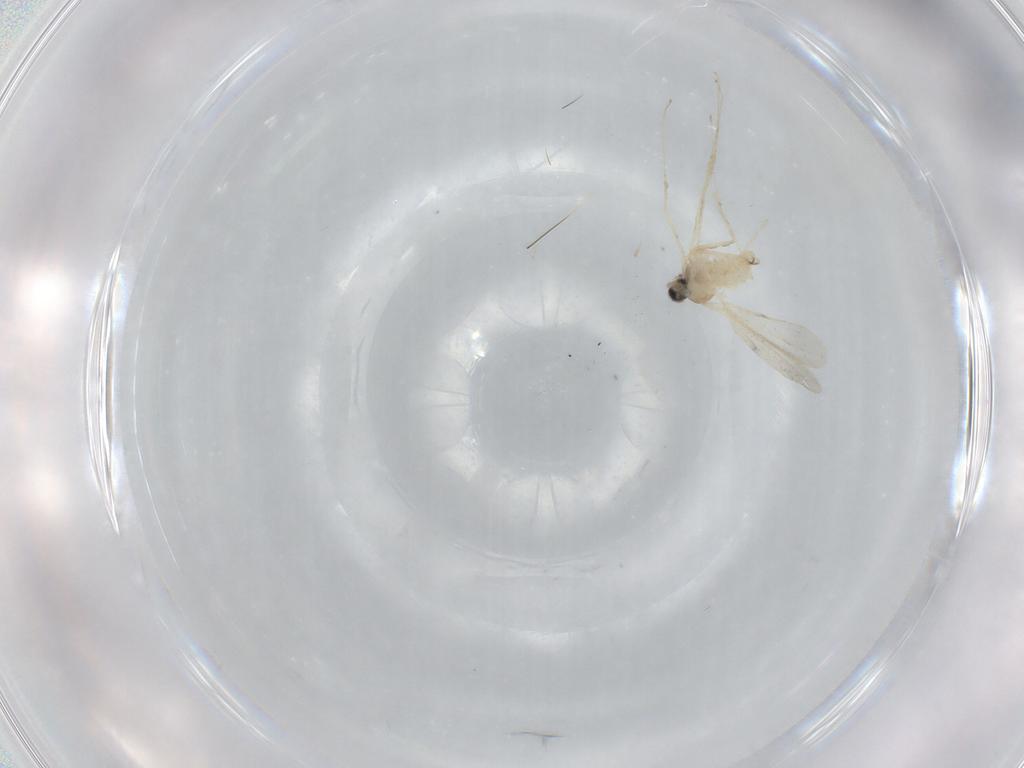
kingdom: Animalia
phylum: Arthropoda
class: Insecta
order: Diptera
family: Cecidomyiidae
